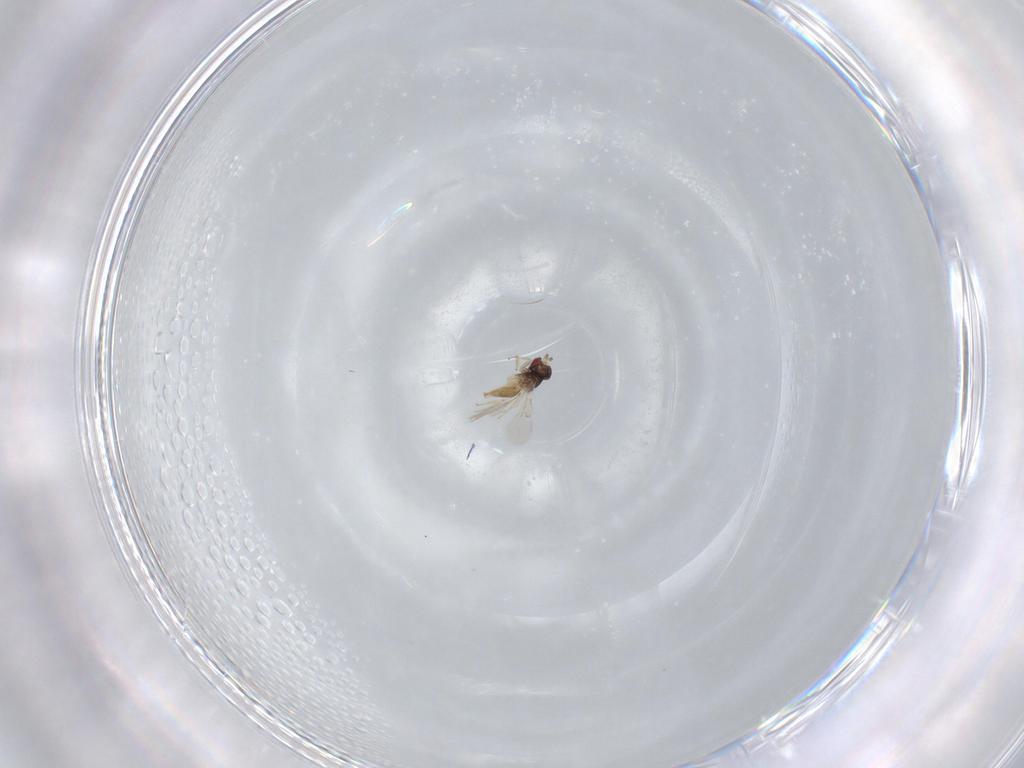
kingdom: Animalia
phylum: Arthropoda
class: Insecta
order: Hymenoptera
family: Trichogrammatidae
